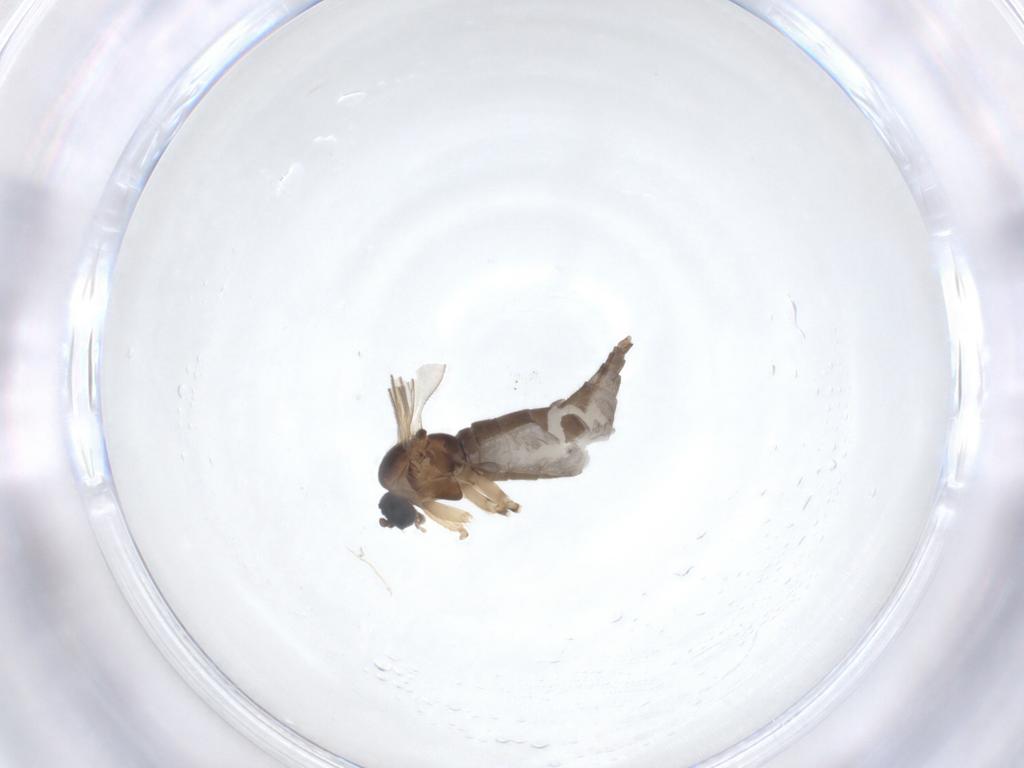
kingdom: Animalia
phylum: Arthropoda
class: Insecta
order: Diptera
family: Sciaridae
